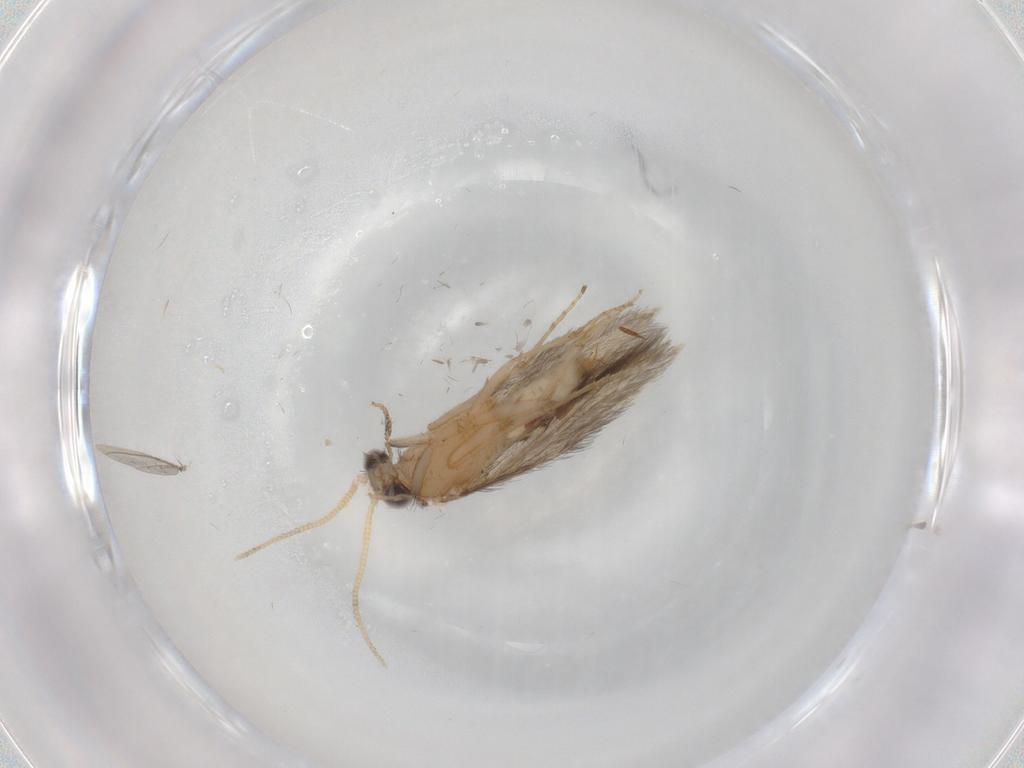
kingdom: Animalia
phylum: Arthropoda
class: Insecta
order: Trichoptera
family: Hydroptilidae
